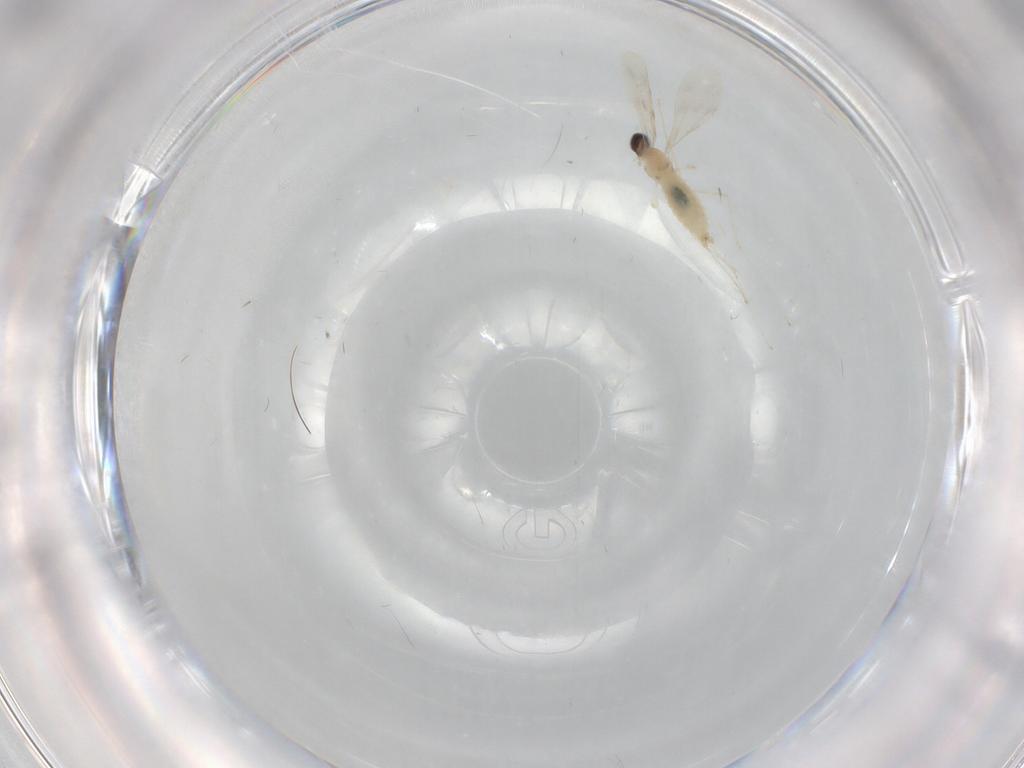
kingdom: Animalia
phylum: Arthropoda
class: Insecta
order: Diptera
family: Cecidomyiidae
